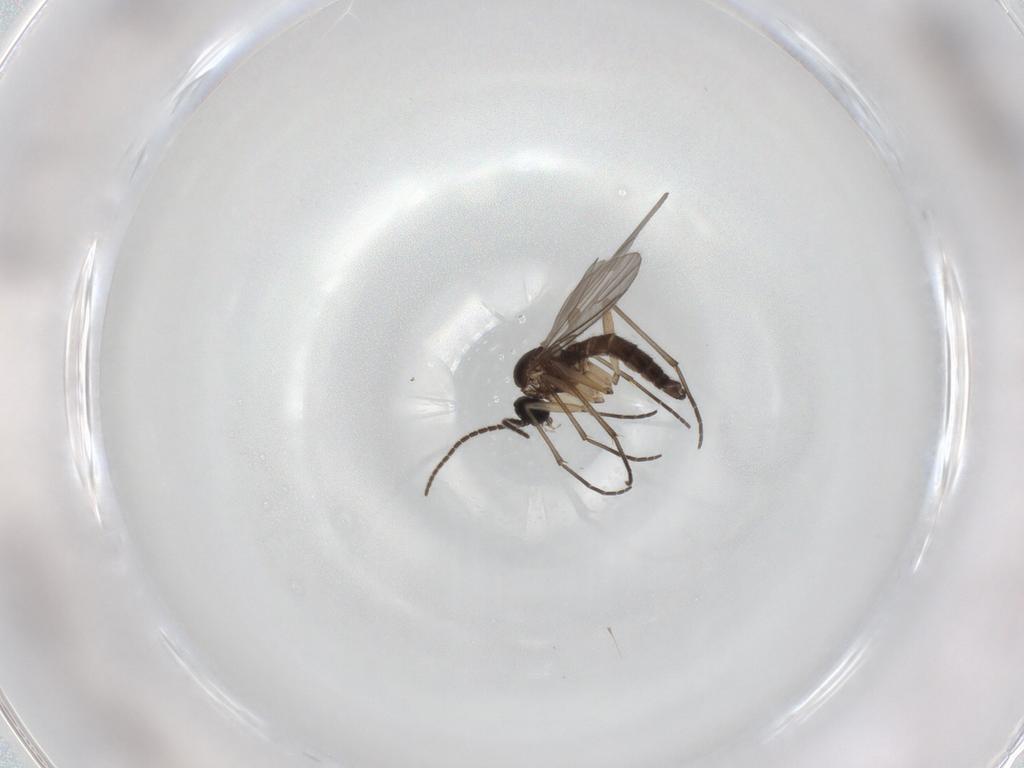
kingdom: Animalia
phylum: Arthropoda
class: Insecta
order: Diptera
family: Sciaridae
